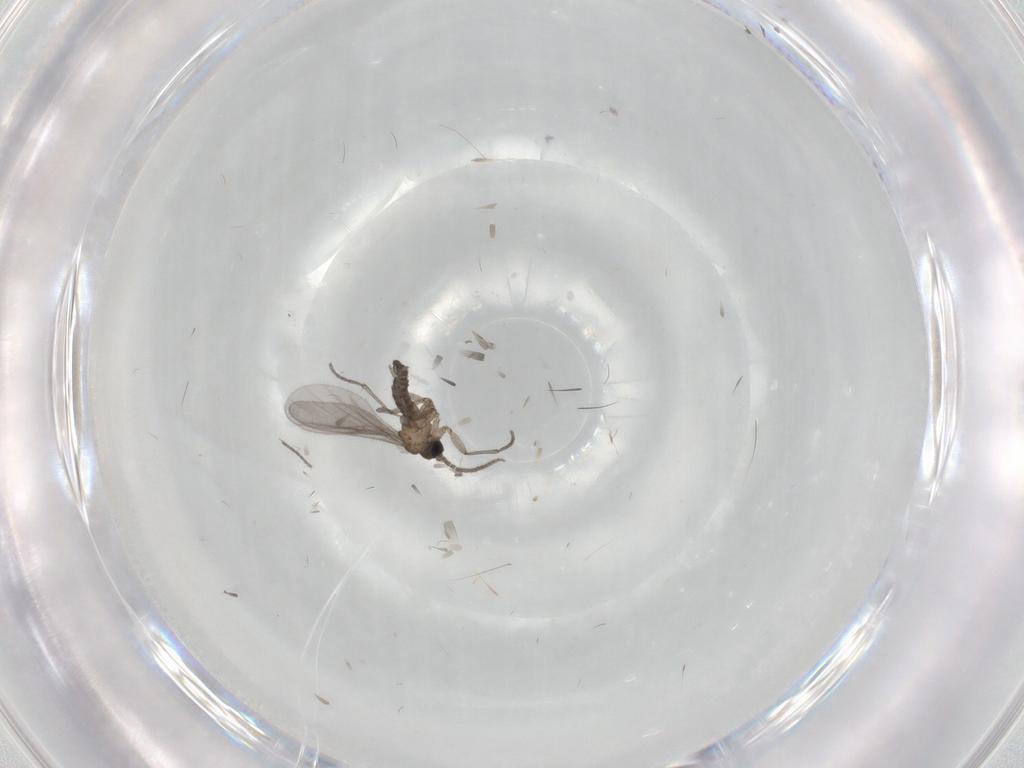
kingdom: Animalia
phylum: Arthropoda
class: Insecta
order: Diptera
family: Sciaridae
